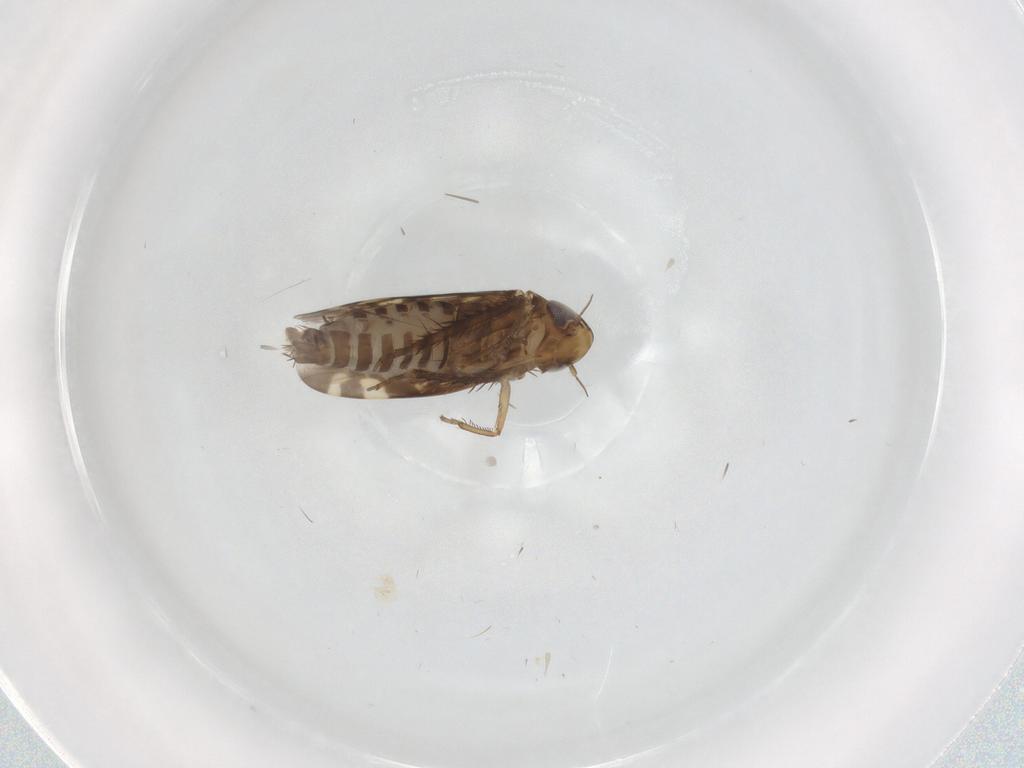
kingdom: Animalia
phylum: Arthropoda
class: Insecta
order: Hemiptera
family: Cicadellidae
